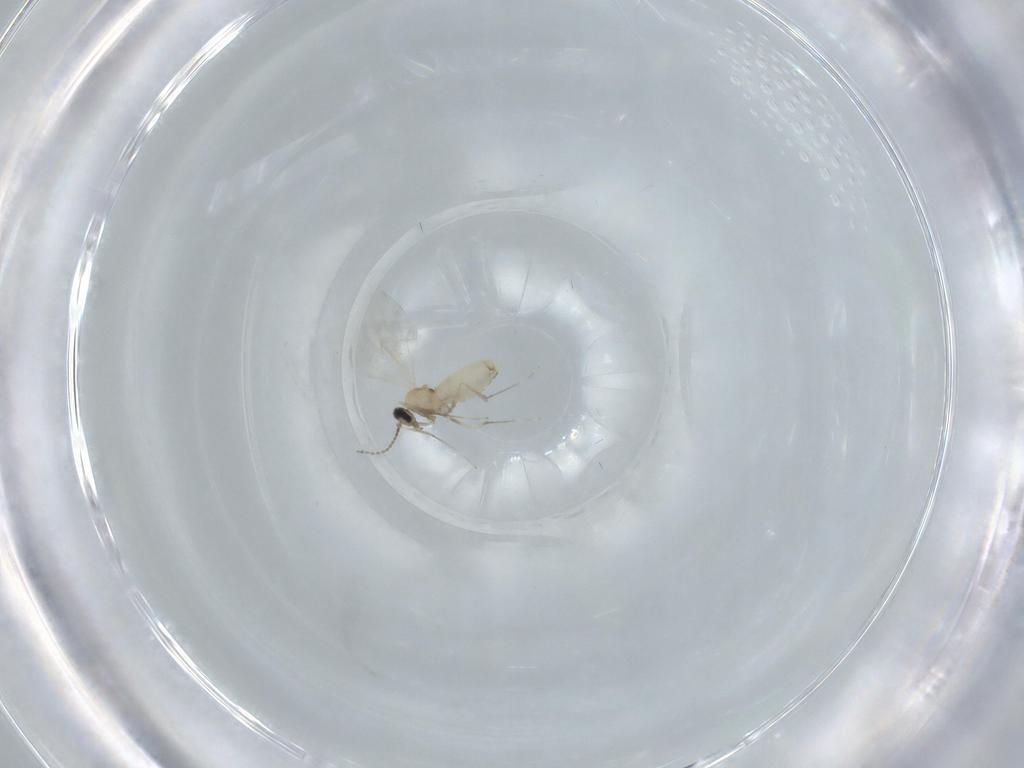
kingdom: Animalia
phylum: Arthropoda
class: Insecta
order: Diptera
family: Cecidomyiidae
